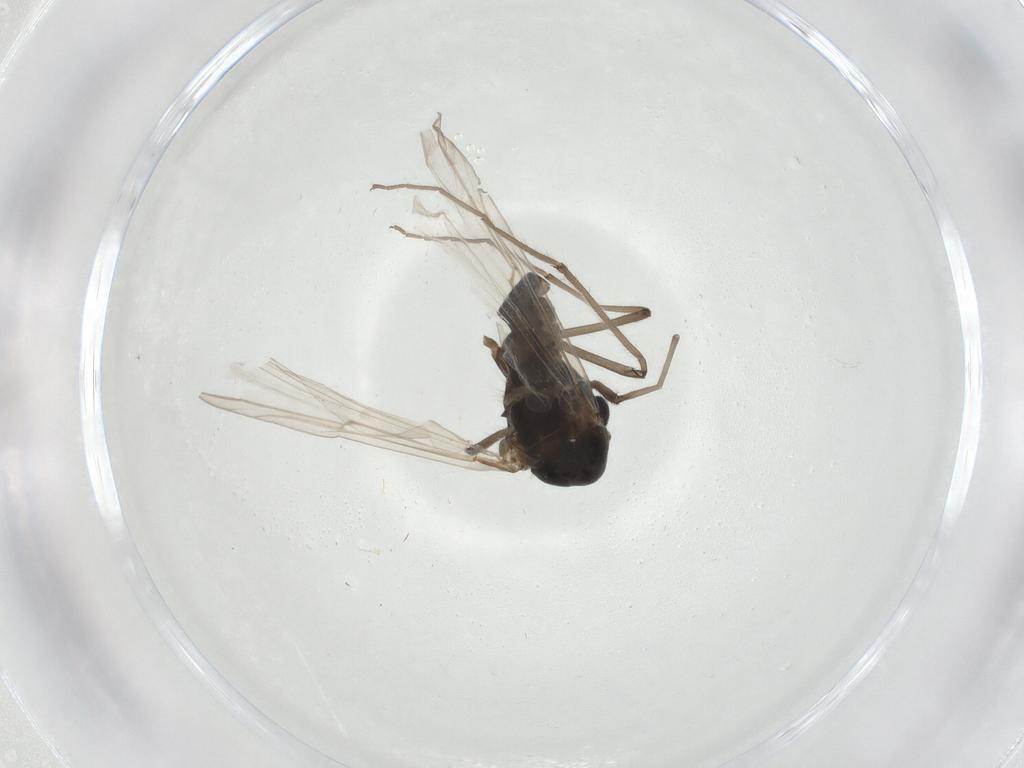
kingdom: Animalia
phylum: Arthropoda
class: Insecta
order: Diptera
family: Chironomidae
